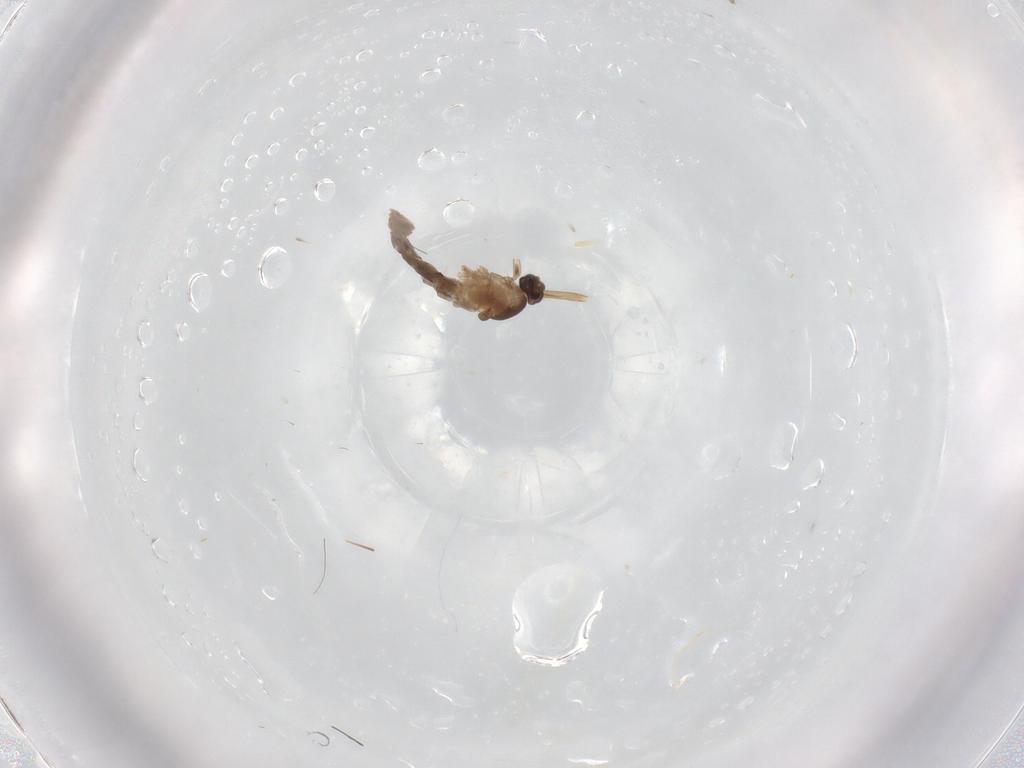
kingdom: Animalia
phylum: Arthropoda
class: Insecta
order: Diptera
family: Cecidomyiidae
